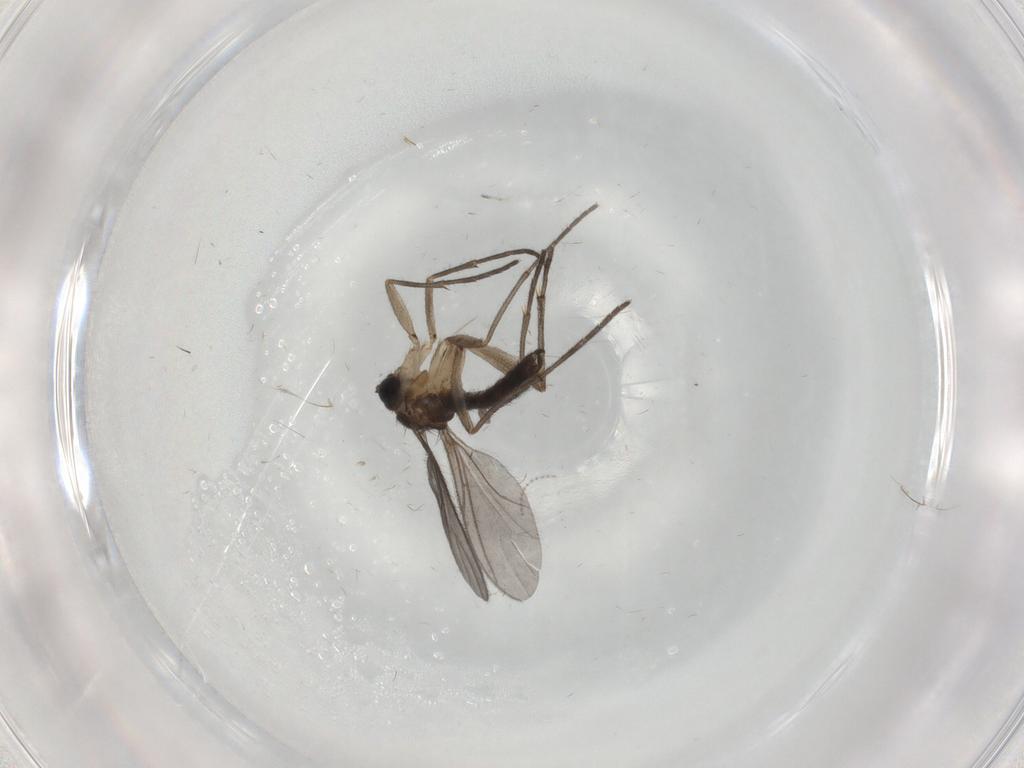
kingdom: Animalia
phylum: Arthropoda
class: Insecta
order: Diptera
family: Sciaridae
